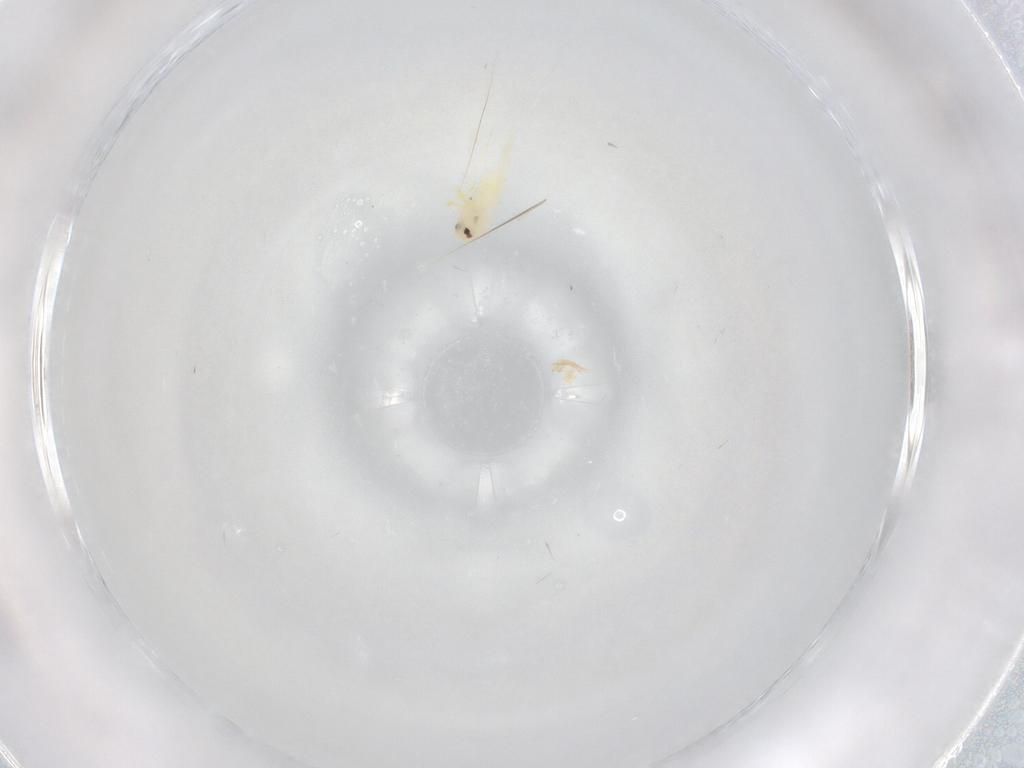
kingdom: Animalia
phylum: Arthropoda
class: Insecta
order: Hemiptera
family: Aleyrodidae
